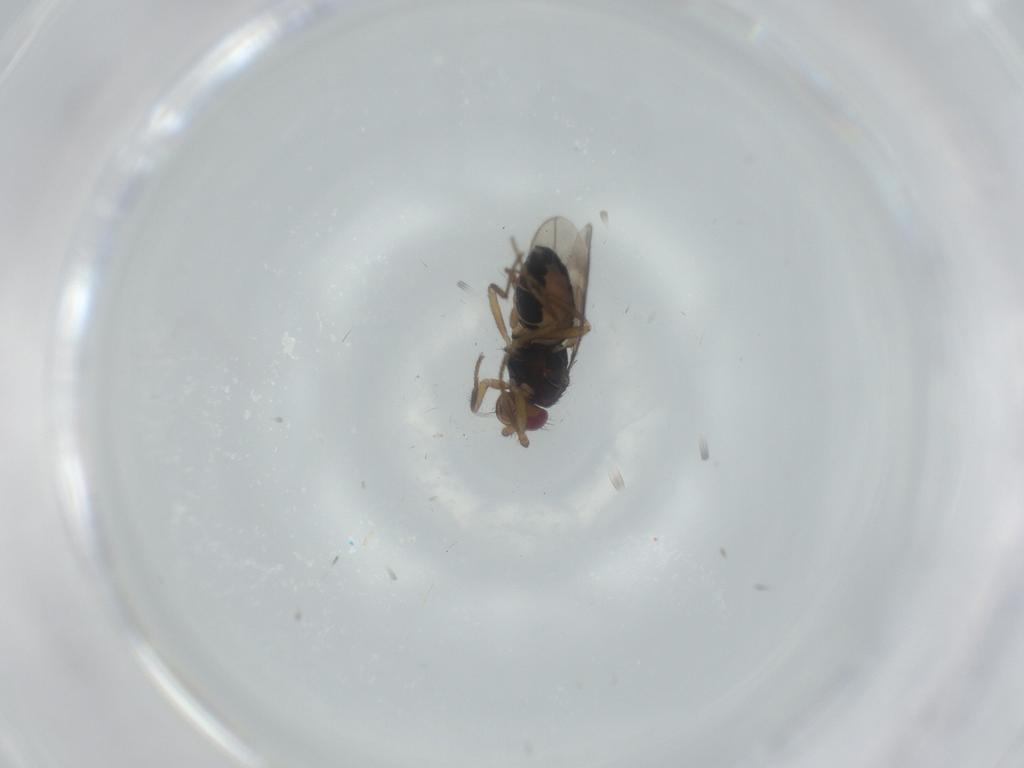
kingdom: Animalia
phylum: Arthropoda
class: Insecta
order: Diptera
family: Sphaeroceridae
